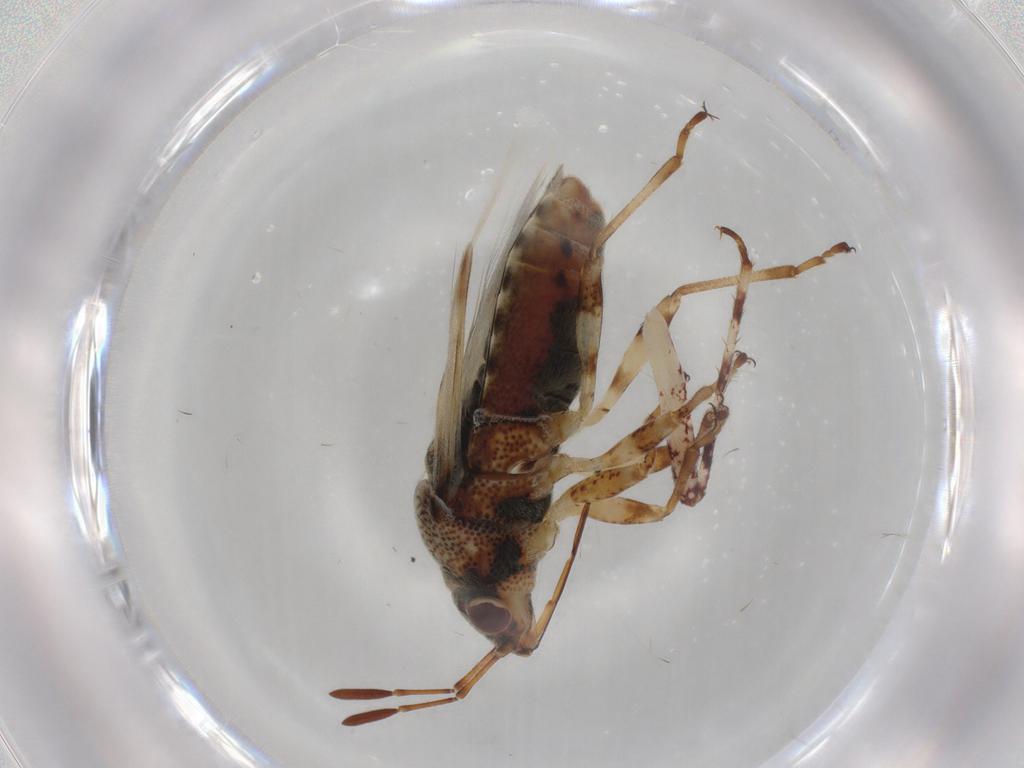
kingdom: Animalia
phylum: Arthropoda
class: Insecta
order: Hemiptera
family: Lygaeidae
